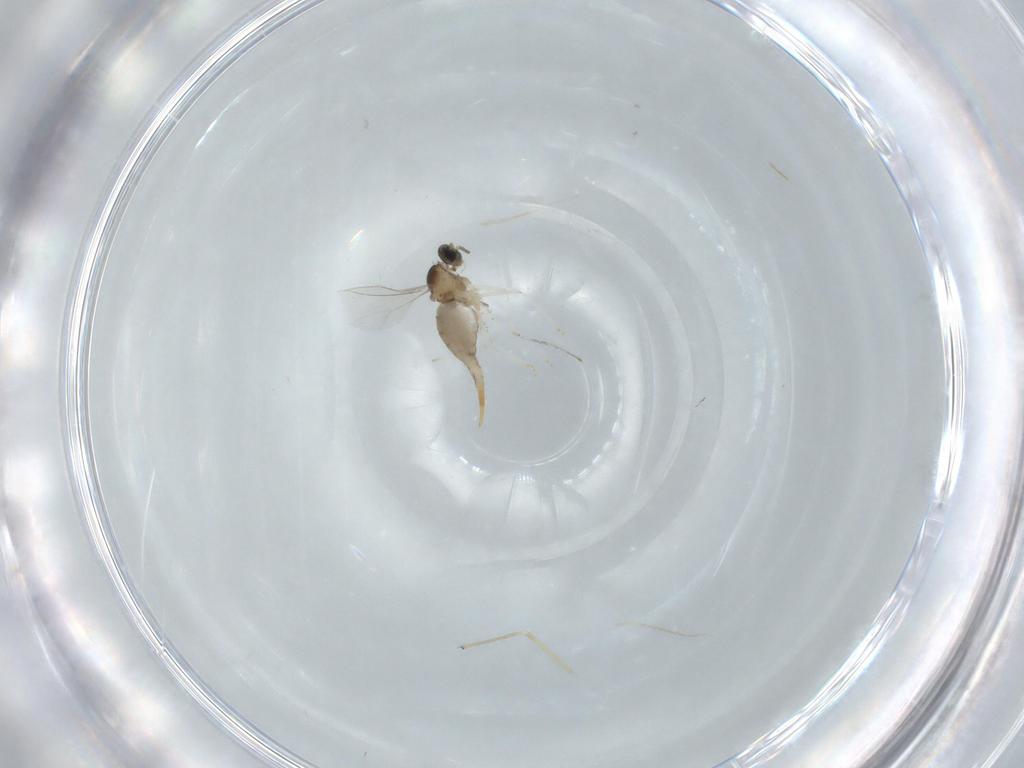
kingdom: Animalia
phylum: Arthropoda
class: Insecta
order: Diptera
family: Cecidomyiidae
